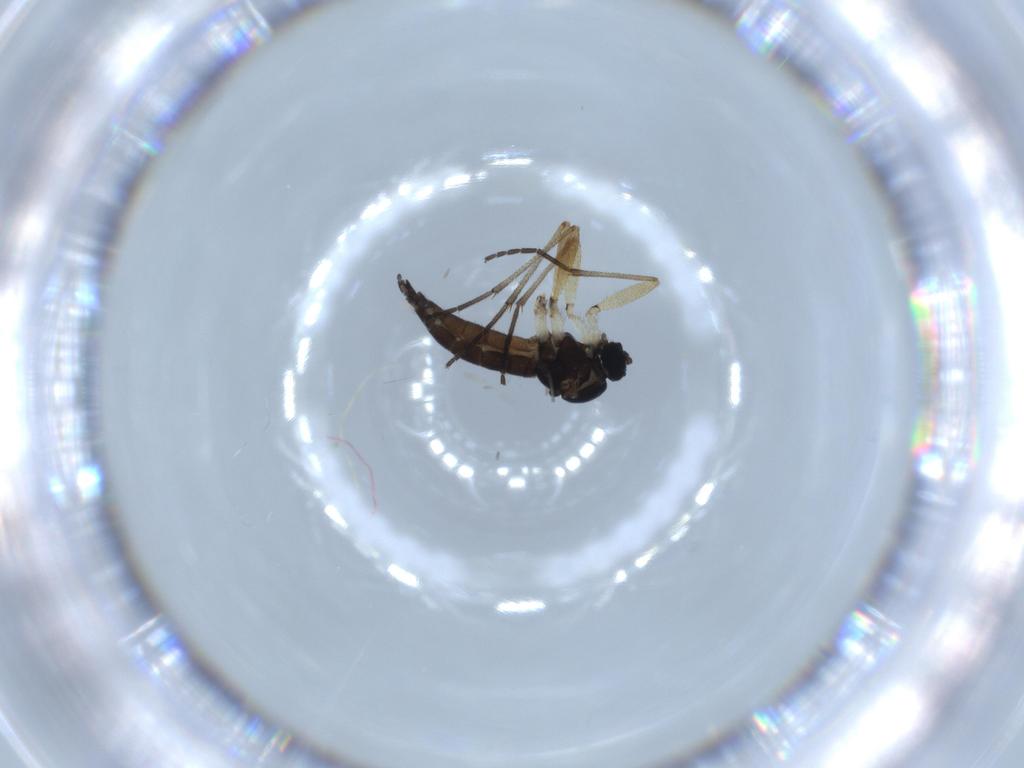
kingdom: Animalia
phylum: Arthropoda
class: Insecta
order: Diptera
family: Sciaridae
